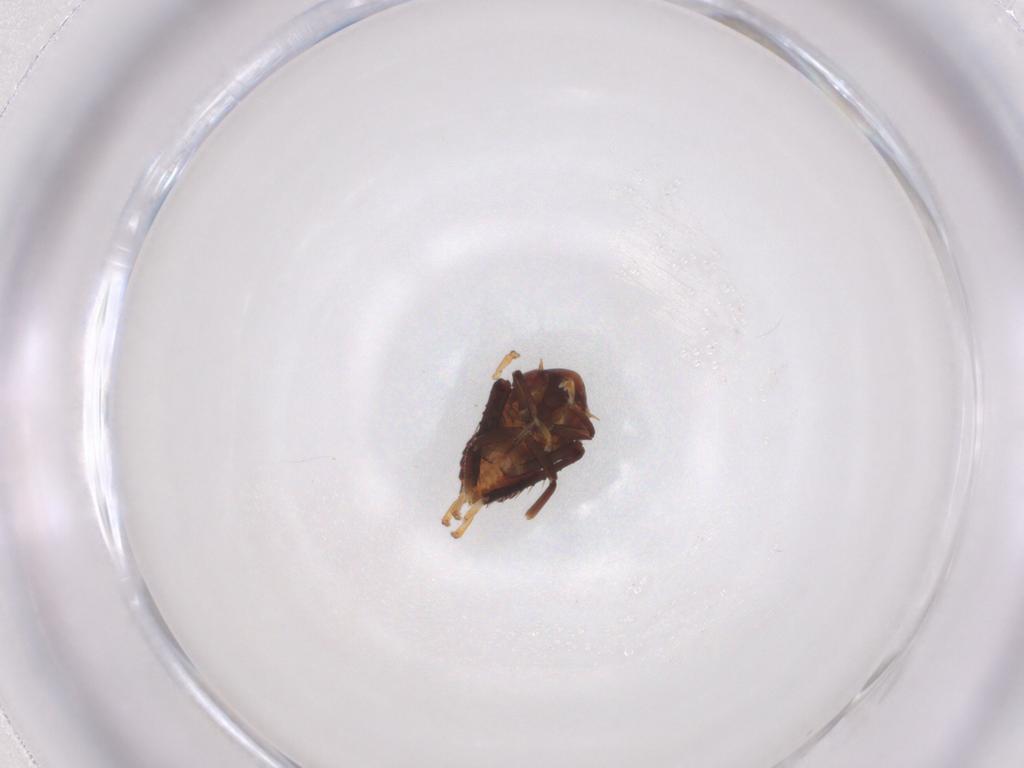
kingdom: Animalia
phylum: Arthropoda
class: Insecta
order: Hemiptera
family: Cicadellidae
